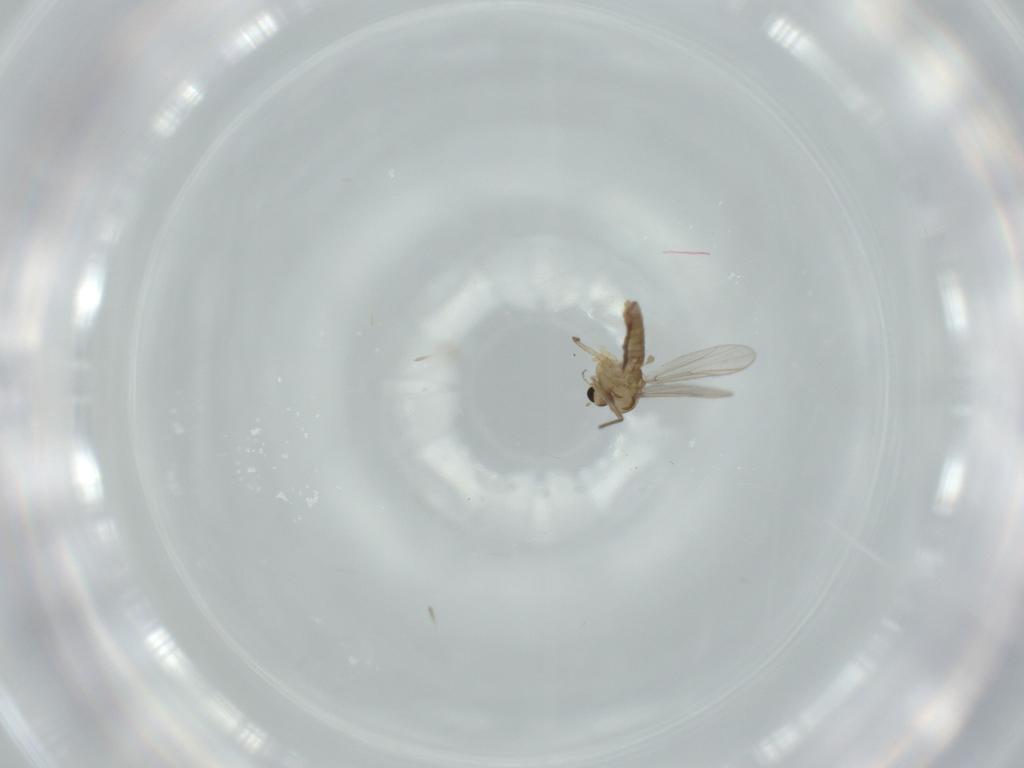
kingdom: Animalia
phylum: Arthropoda
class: Insecta
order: Diptera
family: Chironomidae
